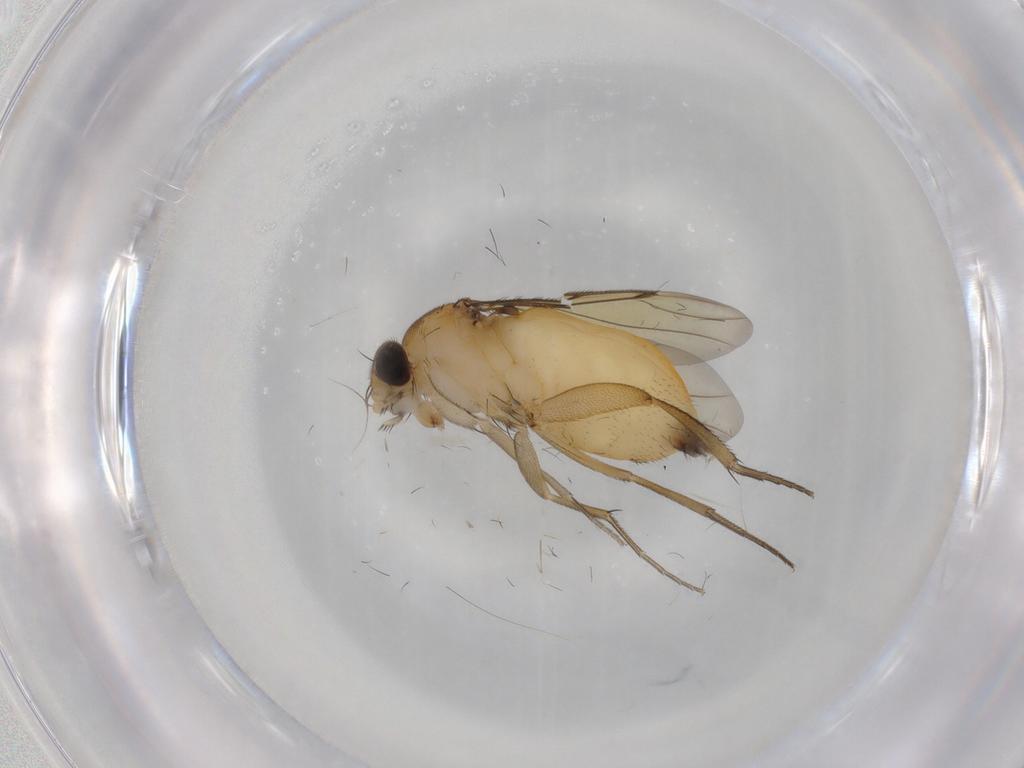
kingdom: Animalia
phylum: Arthropoda
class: Insecta
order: Diptera
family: Phoridae
